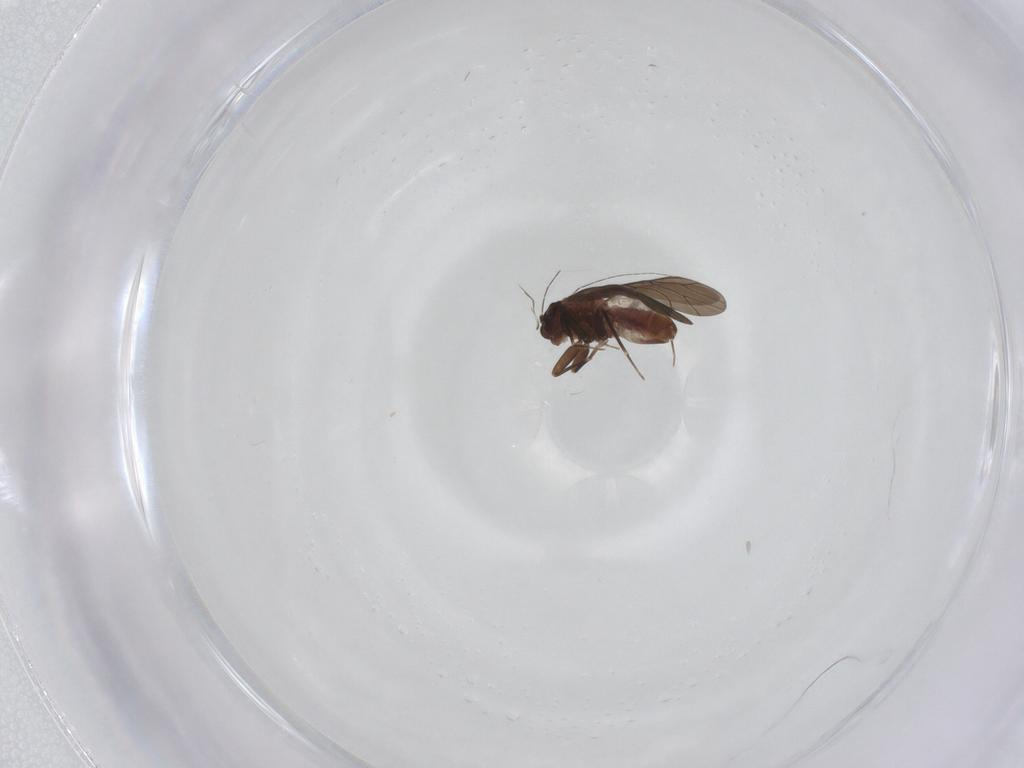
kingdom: Animalia
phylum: Arthropoda
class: Insecta
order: Psocodea
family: Lepidopsocidae
